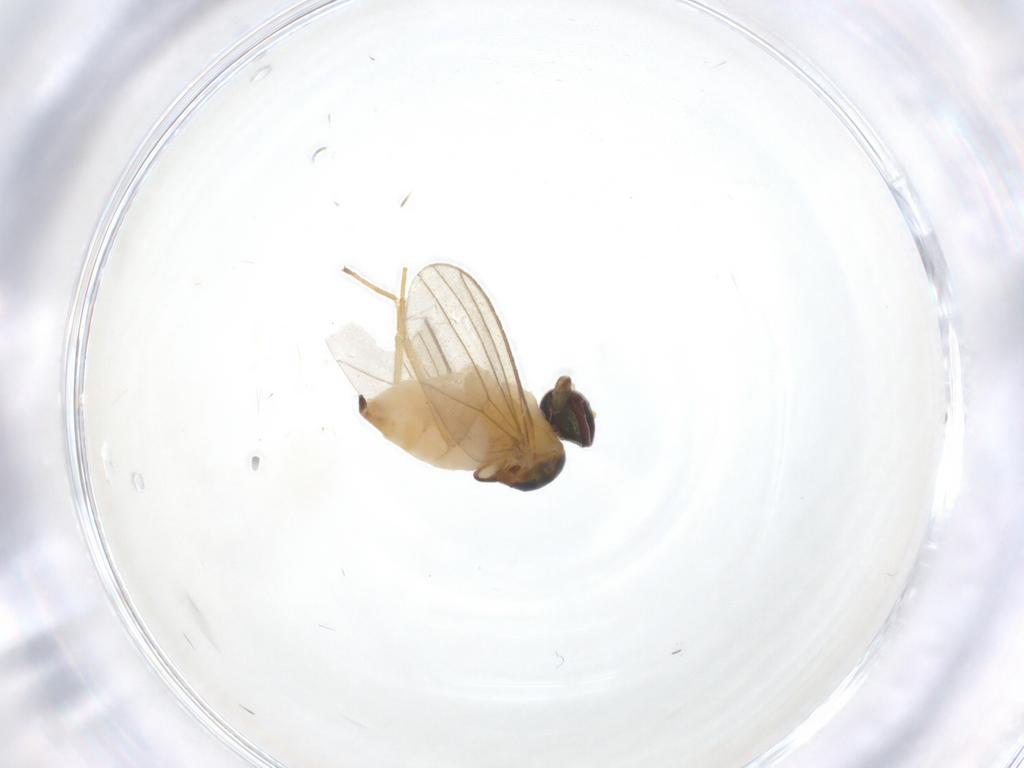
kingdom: Animalia
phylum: Arthropoda
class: Insecta
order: Diptera
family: Dolichopodidae
